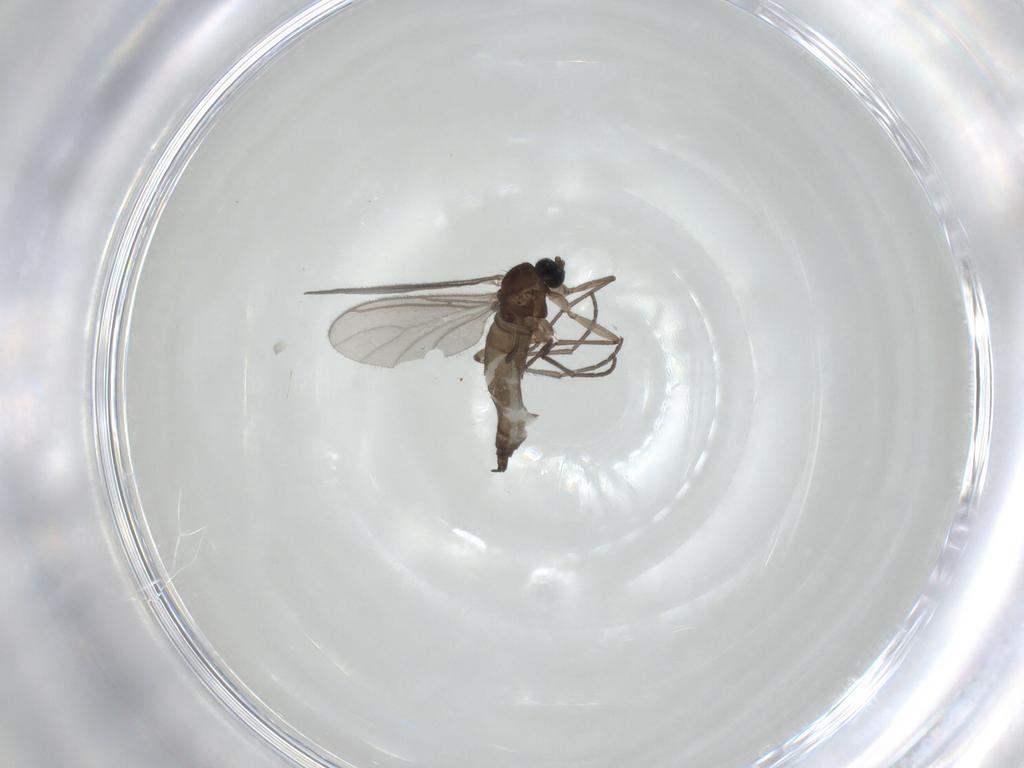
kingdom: Animalia
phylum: Arthropoda
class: Insecta
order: Diptera
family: Sciaridae
